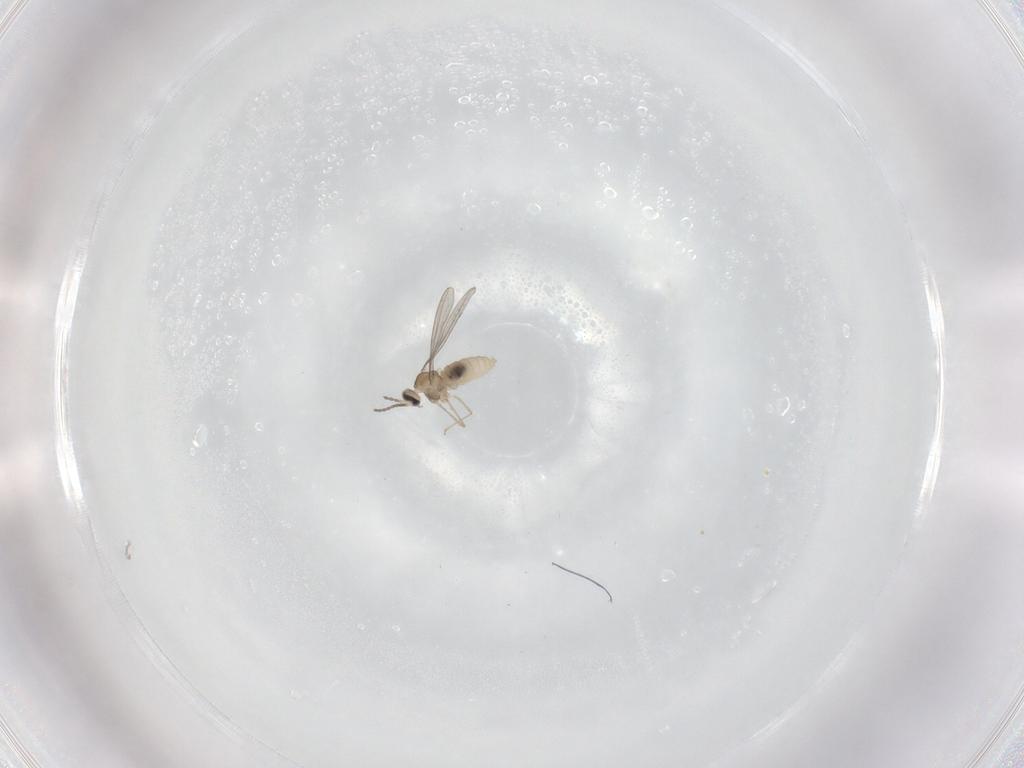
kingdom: Animalia
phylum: Arthropoda
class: Insecta
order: Diptera
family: Cecidomyiidae
